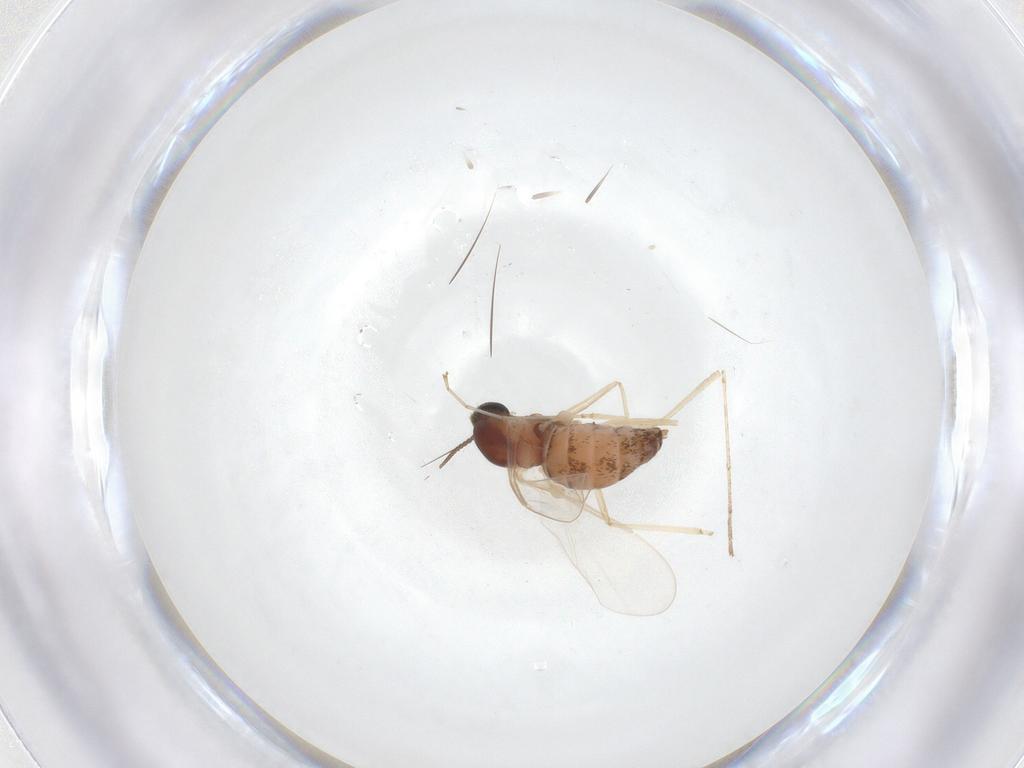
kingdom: Animalia
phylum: Arthropoda
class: Insecta
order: Diptera
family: Cecidomyiidae
